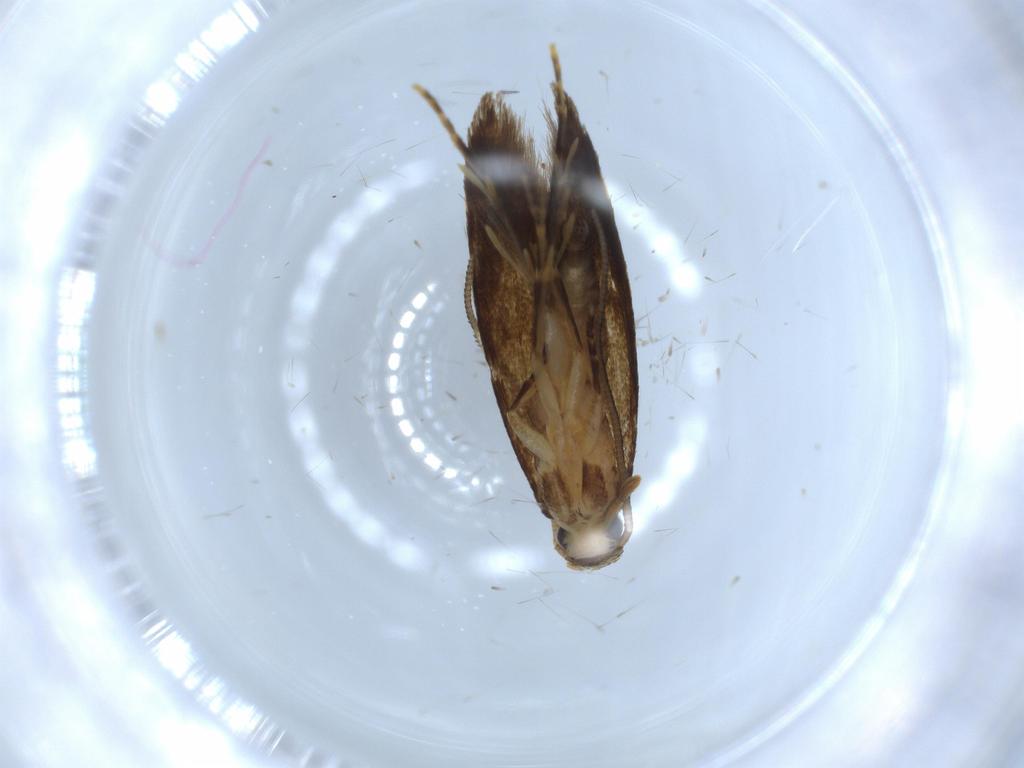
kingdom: Animalia
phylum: Arthropoda
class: Insecta
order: Lepidoptera
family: Tineidae
